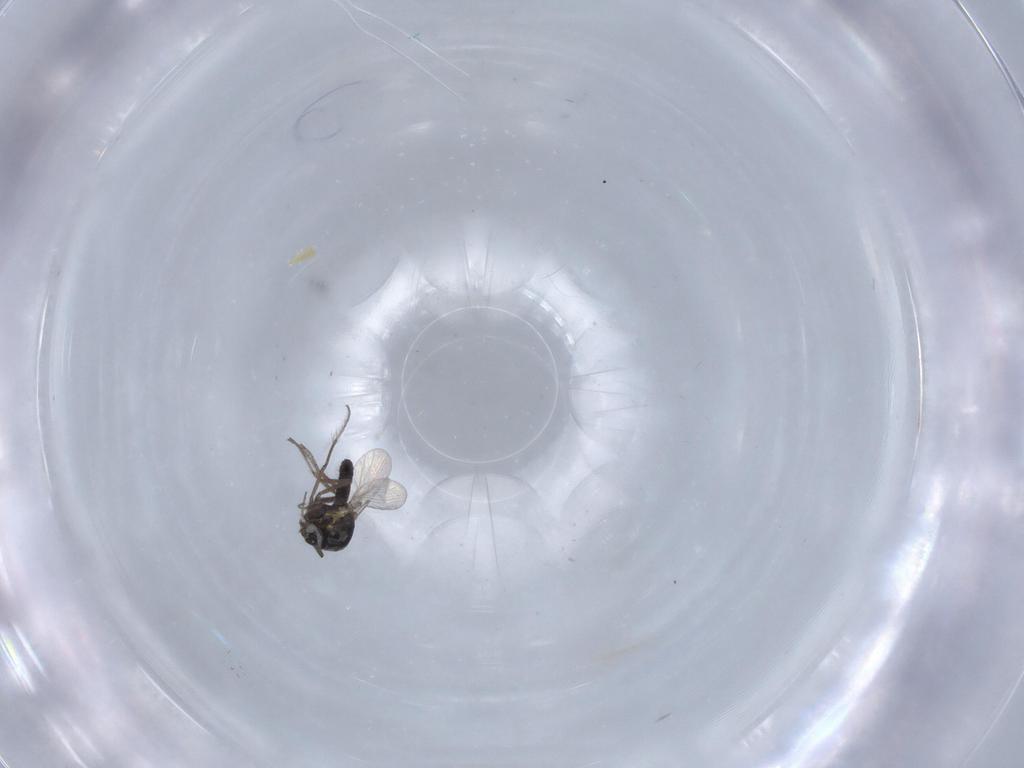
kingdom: Animalia
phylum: Arthropoda
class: Insecta
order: Diptera
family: Ceratopogonidae
